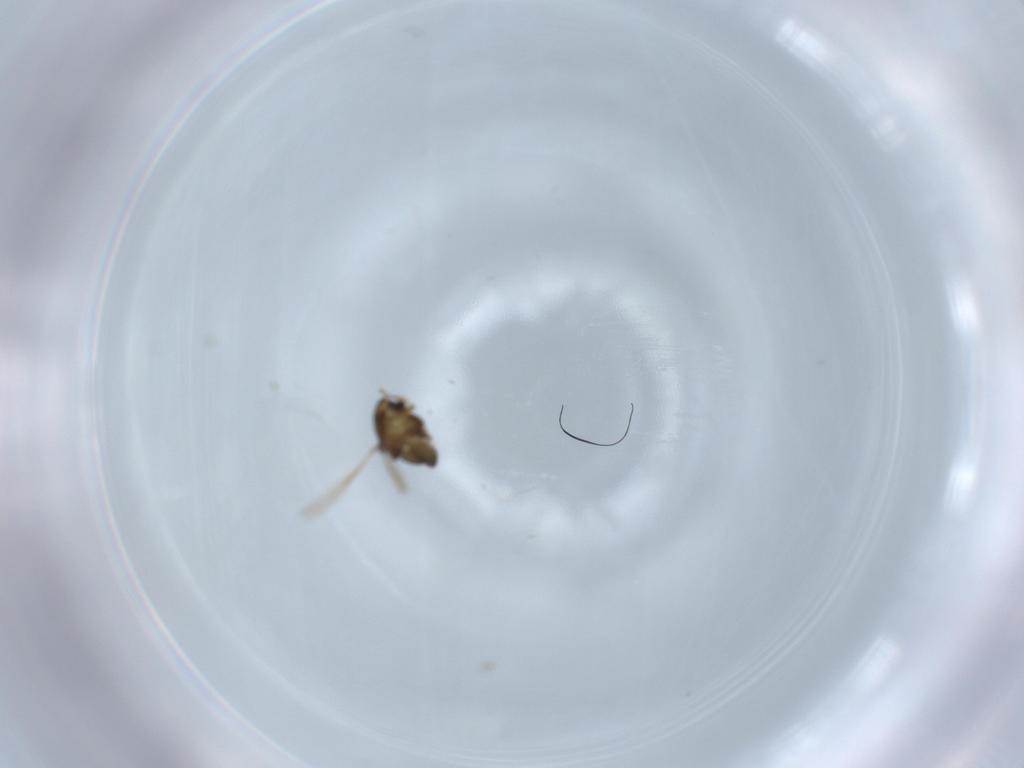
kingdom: Animalia
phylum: Arthropoda
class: Insecta
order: Diptera
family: Chironomidae
